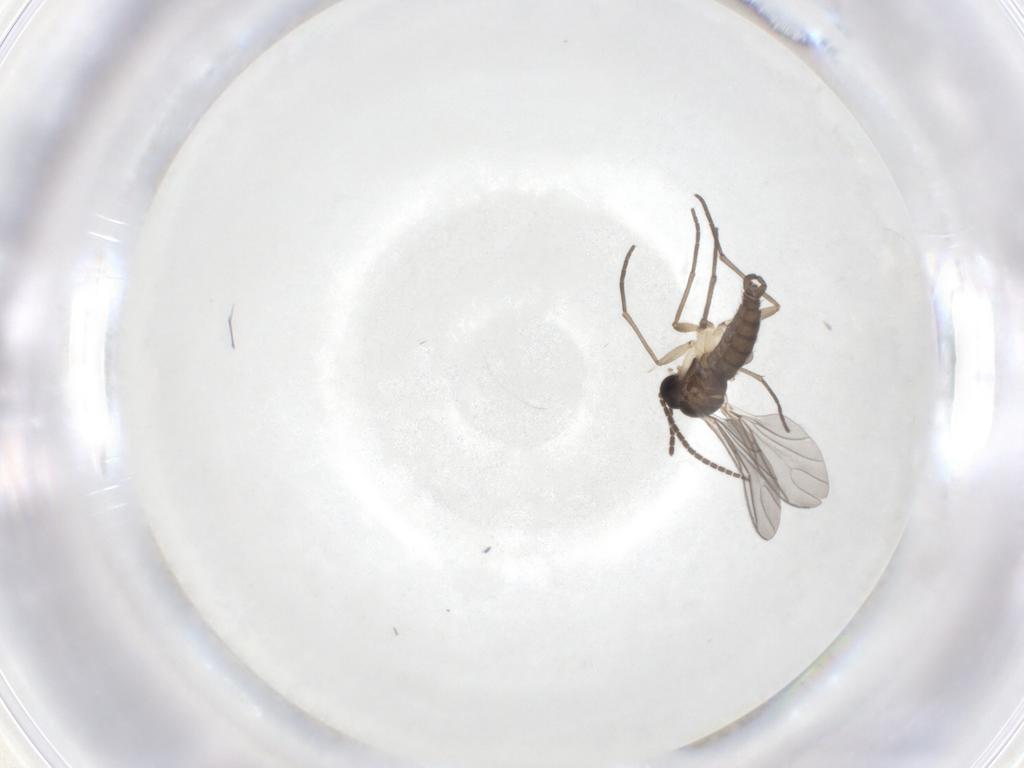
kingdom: Animalia
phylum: Arthropoda
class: Insecta
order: Diptera
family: Sciaridae
